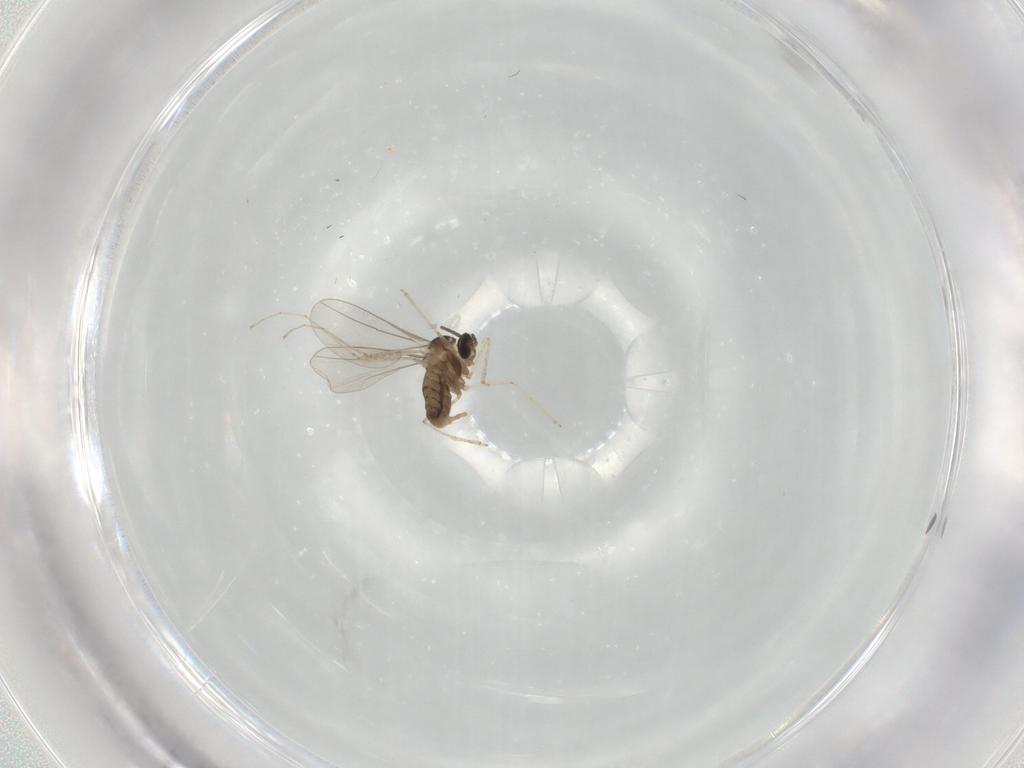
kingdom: Animalia
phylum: Arthropoda
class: Insecta
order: Diptera
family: Cecidomyiidae
